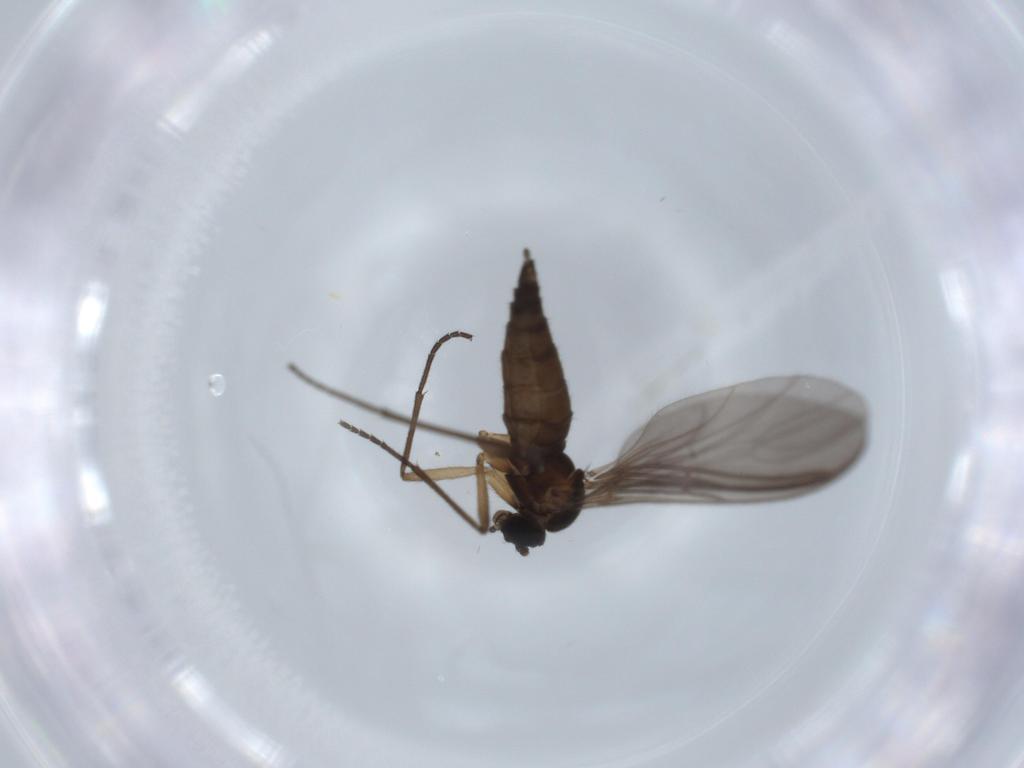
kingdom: Animalia
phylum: Arthropoda
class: Insecta
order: Diptera
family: Sciaridae
